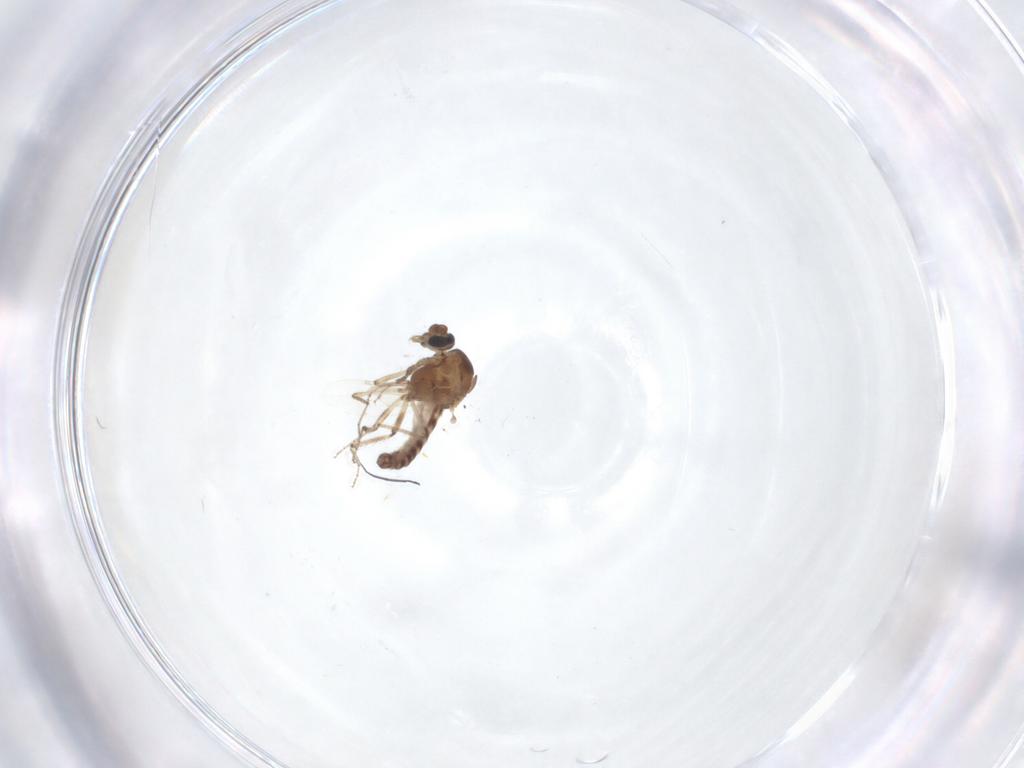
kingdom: Animalia
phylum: Arthropoda
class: Insecta
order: Diptera
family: Ceratopogonidae
